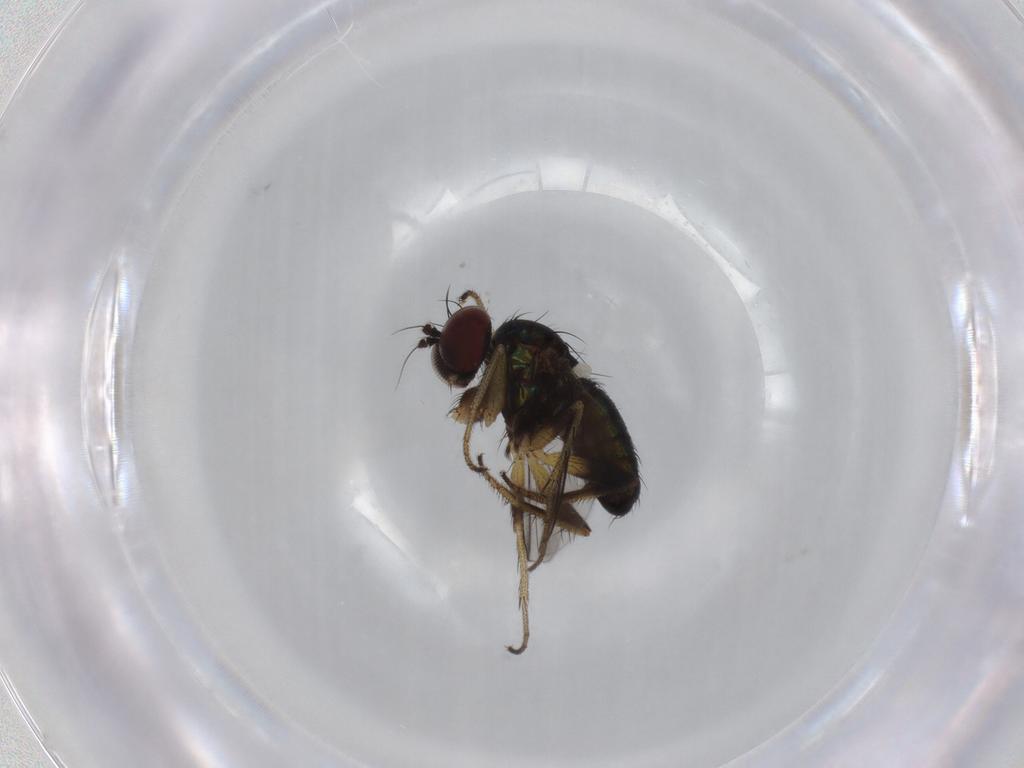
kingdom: Animalia
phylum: Arthropoda
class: Insecta
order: Diptera
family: Dolichopodidae
